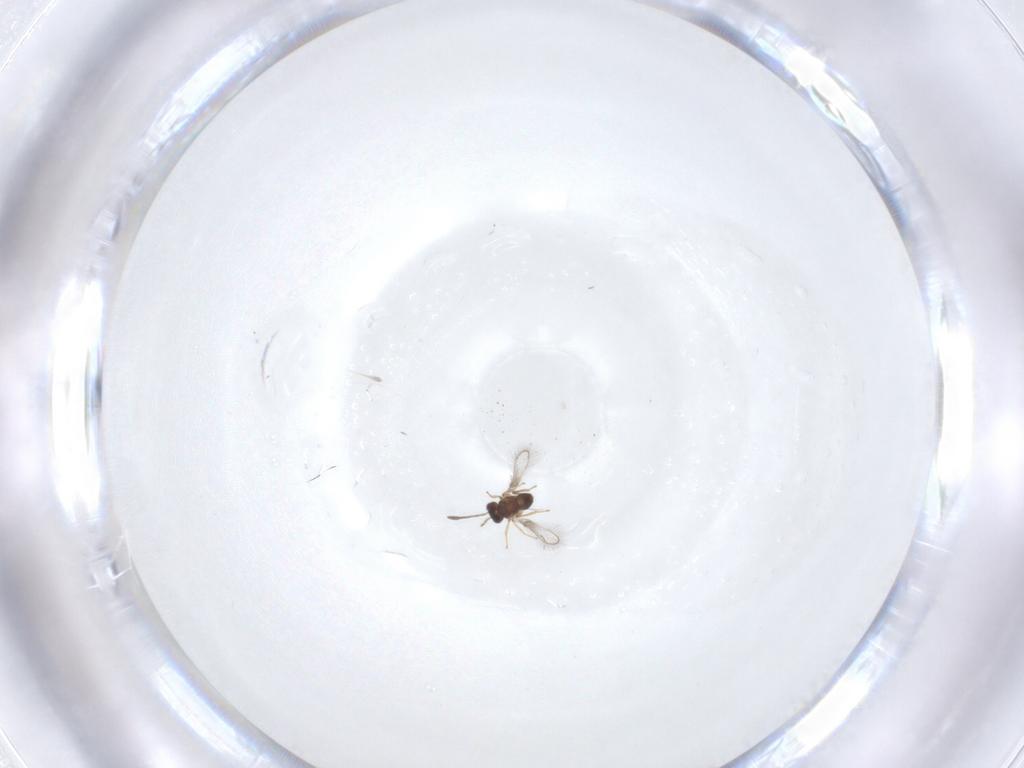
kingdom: Animalia
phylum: Arthropoda
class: Insecta
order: Hymenoptera
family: Mymaridae
